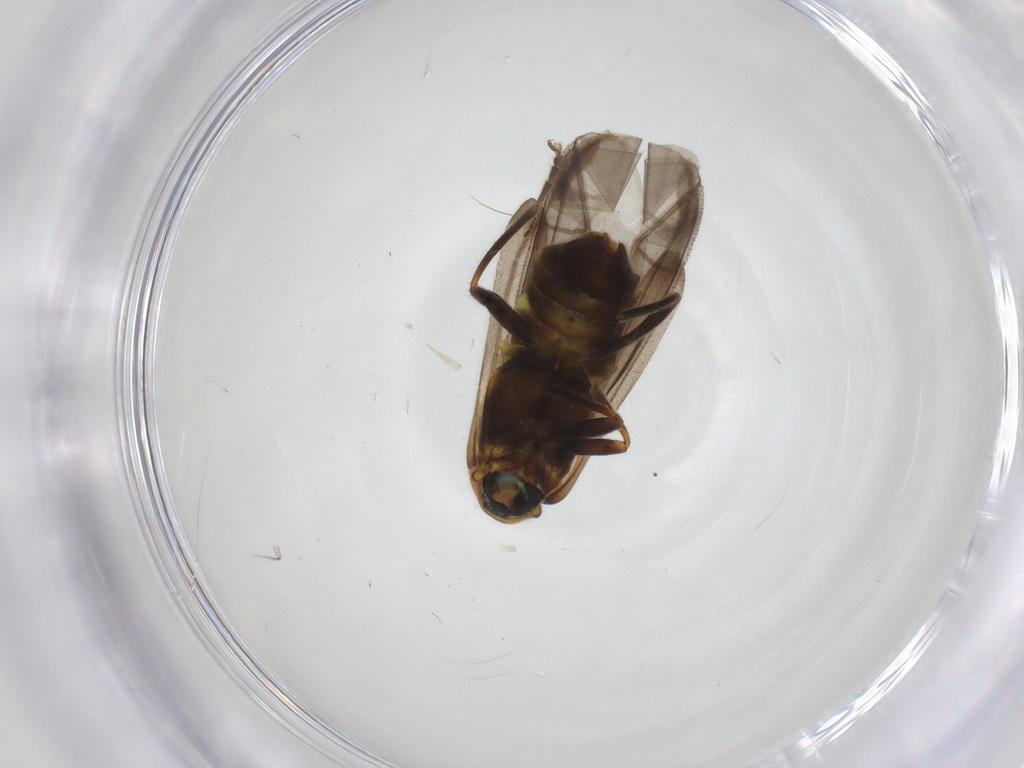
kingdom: Animalia
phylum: Arthropoda
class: Insecta
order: Coleoptera
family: Cantharidae
